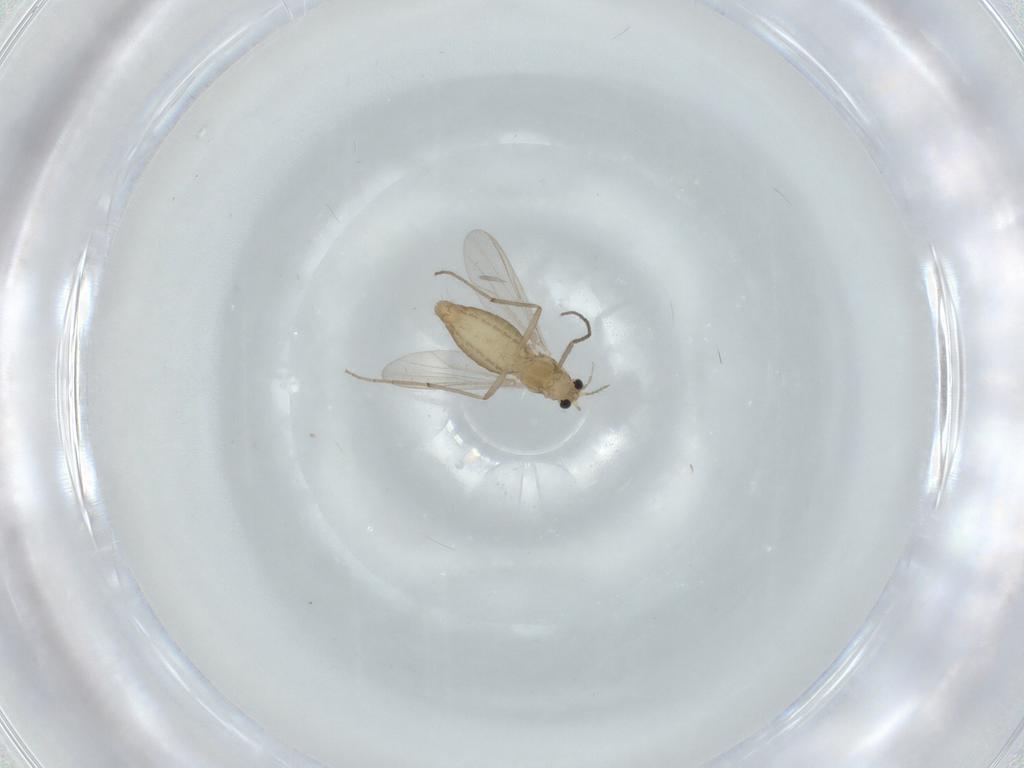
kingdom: Animalia
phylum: Arthropoda
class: Insecta
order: Diptera
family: Chironomidae
